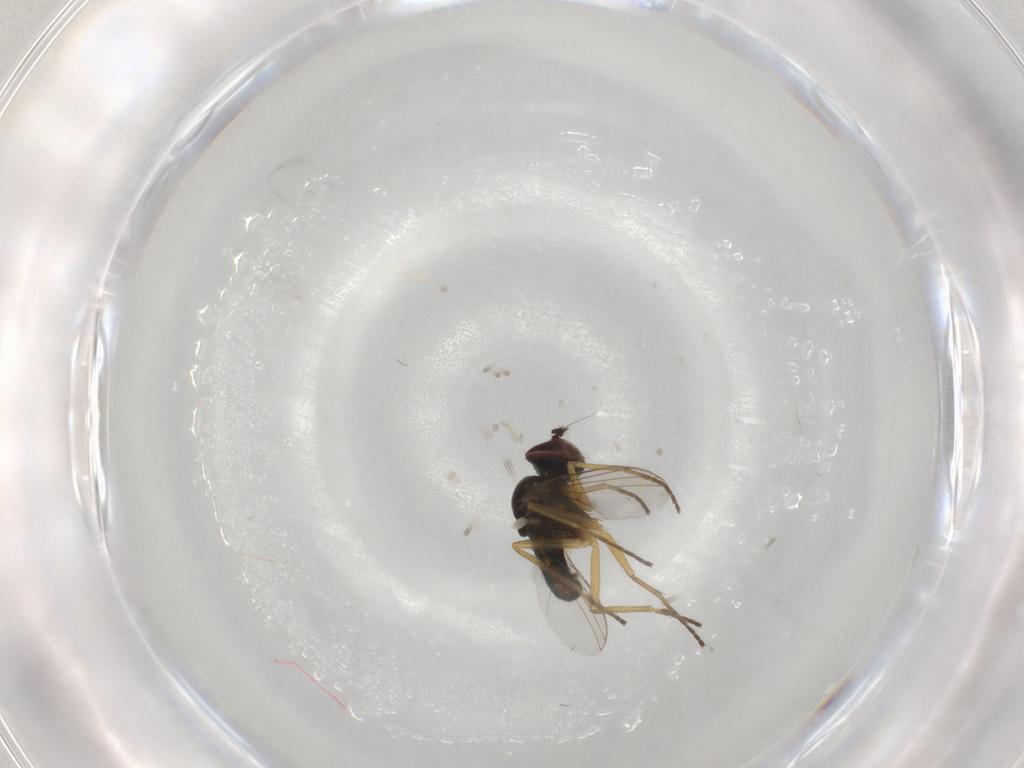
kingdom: Animalia
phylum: Arthropoda
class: Insecta
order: Diptera
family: Dolichopodidae
